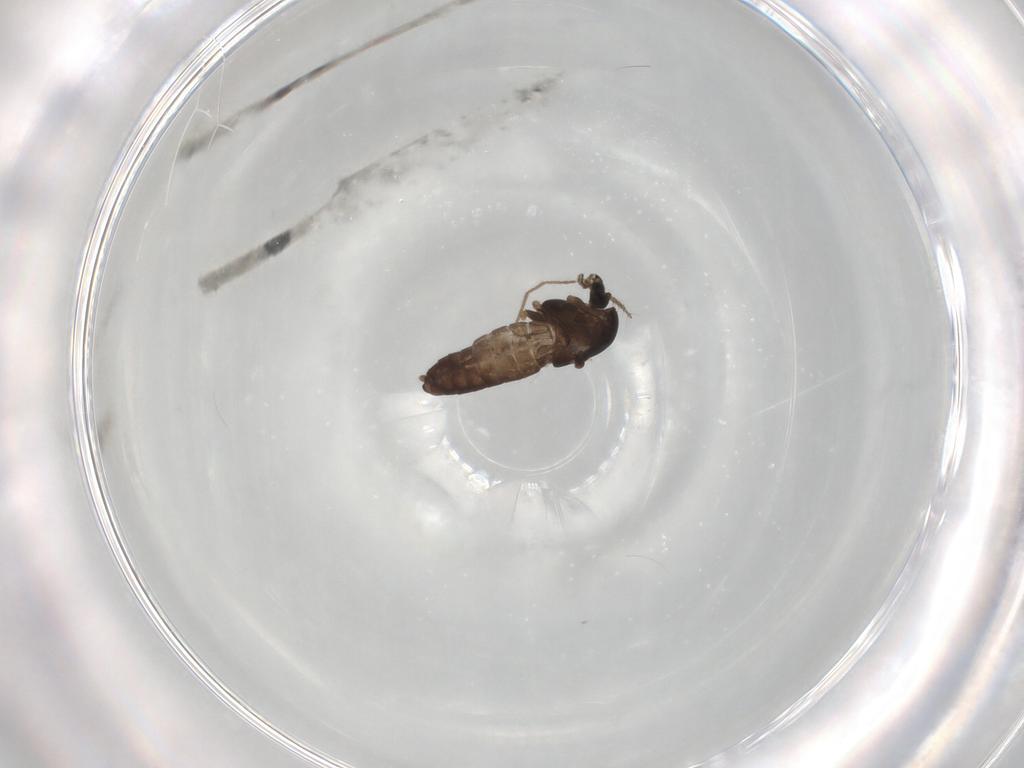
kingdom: Animalia
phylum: Arthropoda
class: Insecta
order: Diptera
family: Chironomidae
